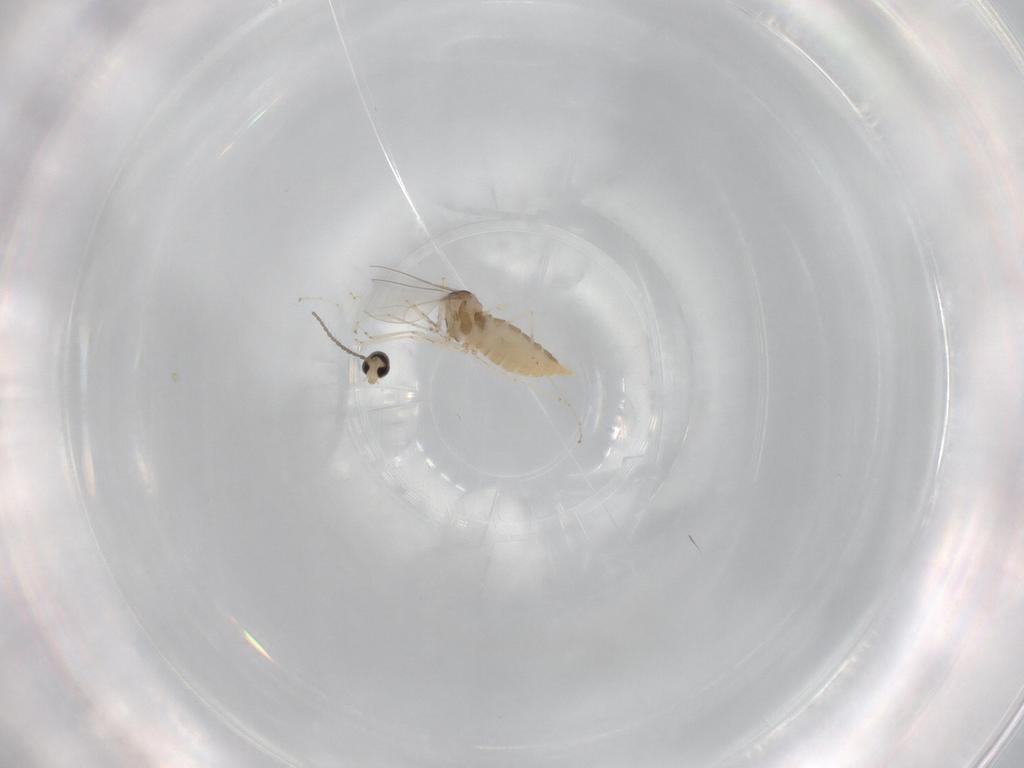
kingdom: Animalia
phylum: Arthropoda
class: Insecta
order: Diptera
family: Cecidomyiidae
